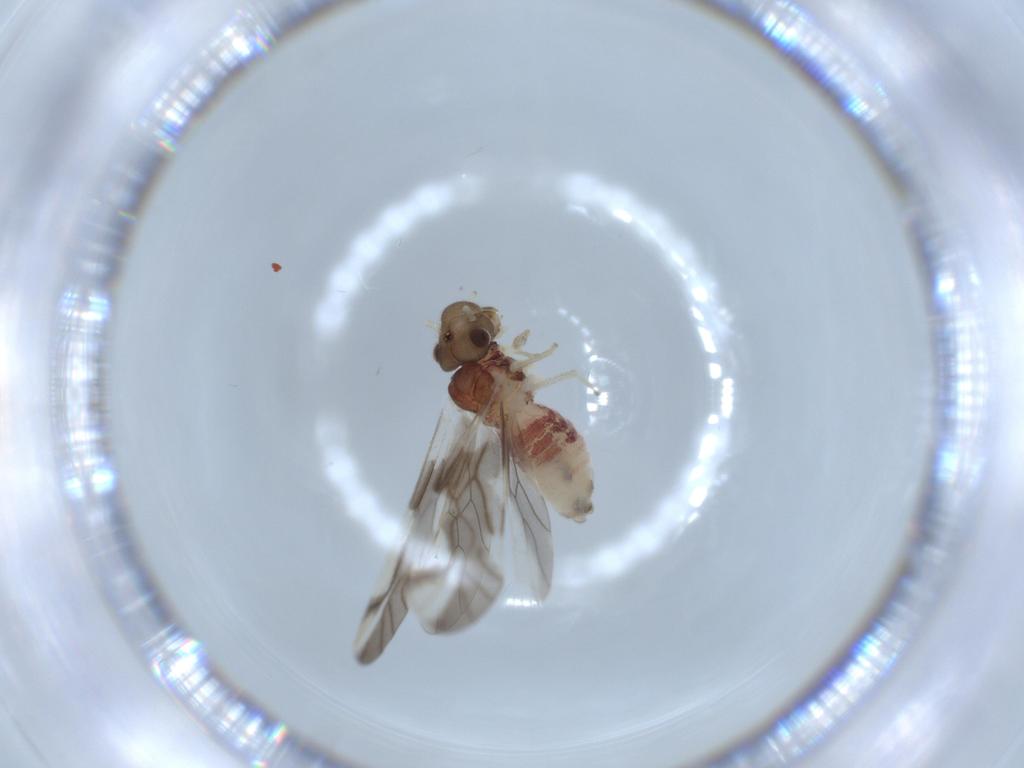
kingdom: Animalia
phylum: Arthropoda
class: Insecta
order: Psocodea
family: Caeciliusidae
